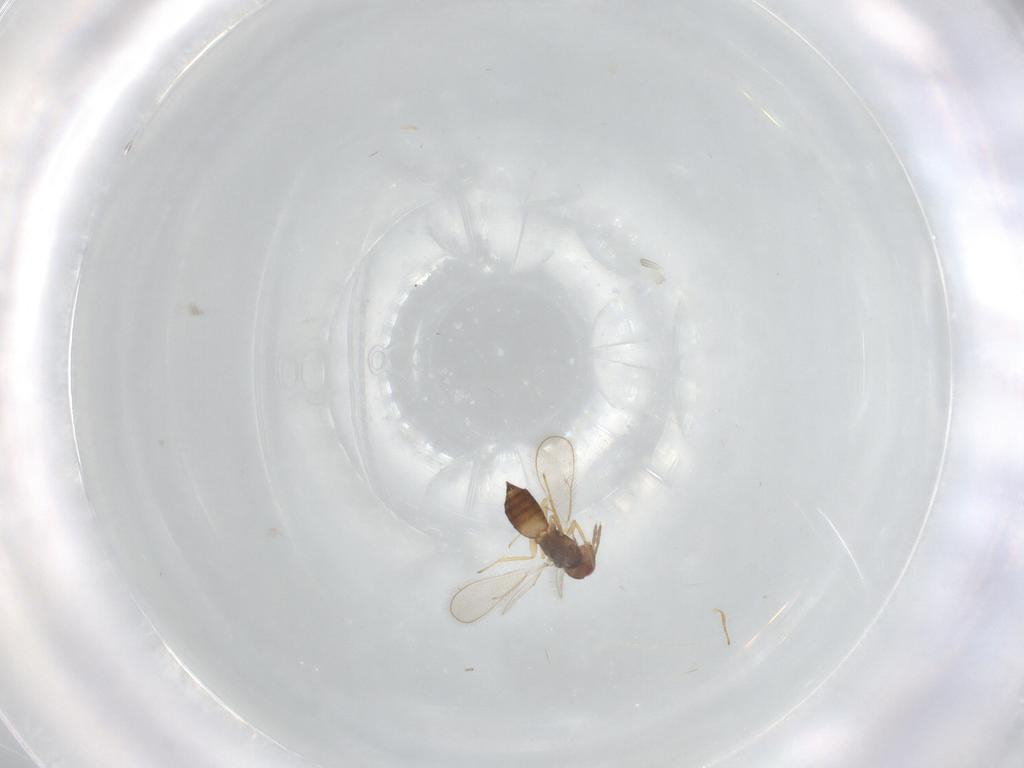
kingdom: Animalia
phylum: Arthropoda
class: Insecta
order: Hymenoptera
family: Eulophidae
